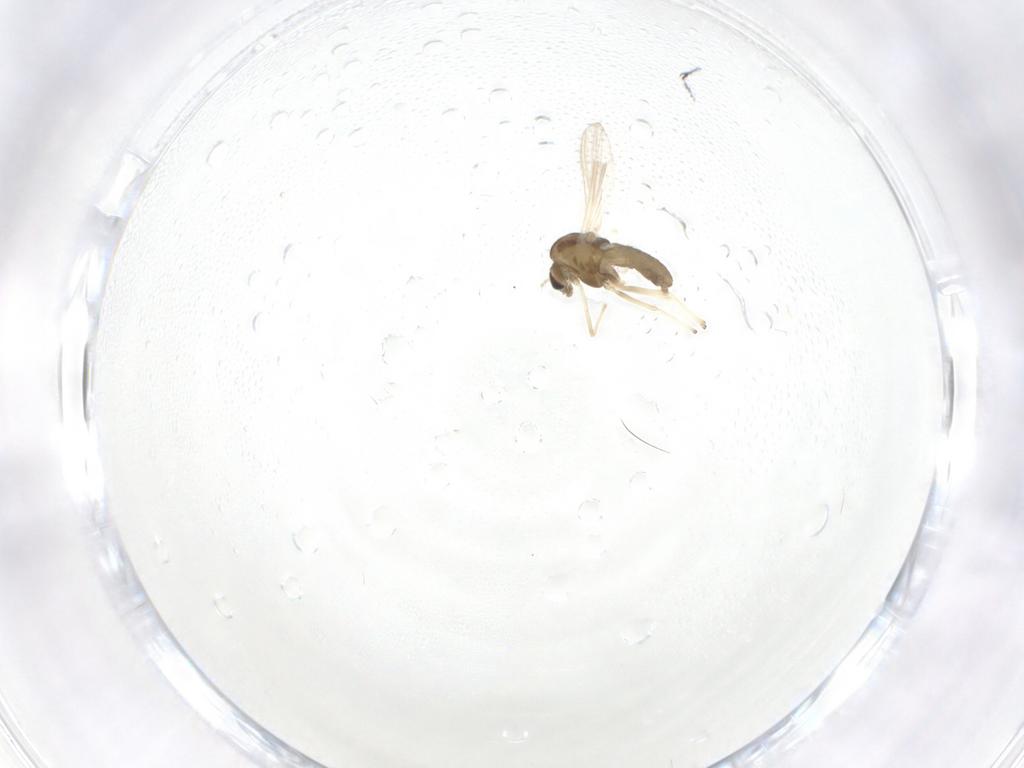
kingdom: Animalia
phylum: Arthropoda
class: Insecta
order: Diptera
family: Chironomidae
